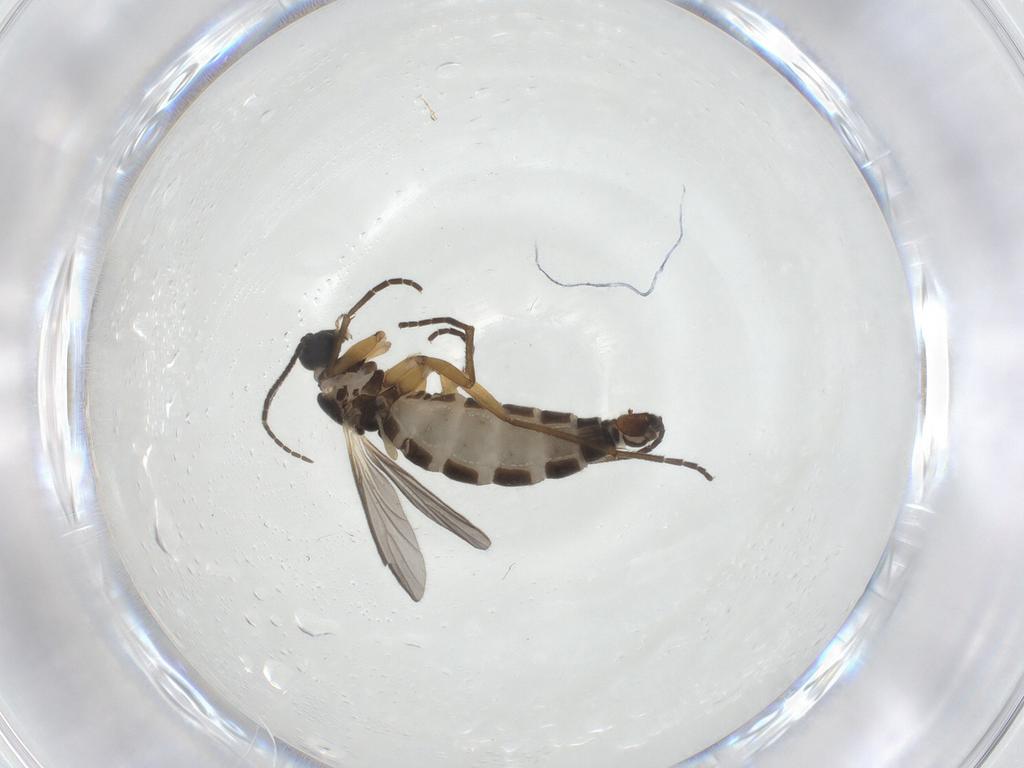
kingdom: Animalia
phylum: Arthropoda
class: Insecta
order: Diptera
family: Sciaridae
